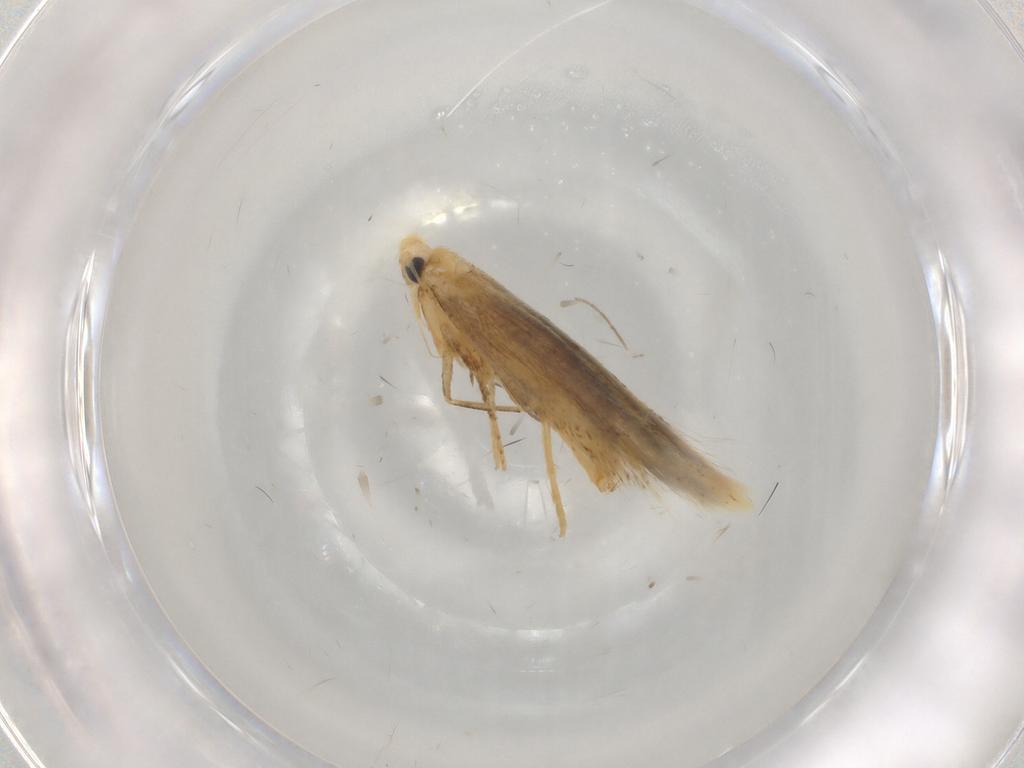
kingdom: Animalia
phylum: Arthropoda
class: Insecta
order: Lepidoptera
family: Tischeriidae
